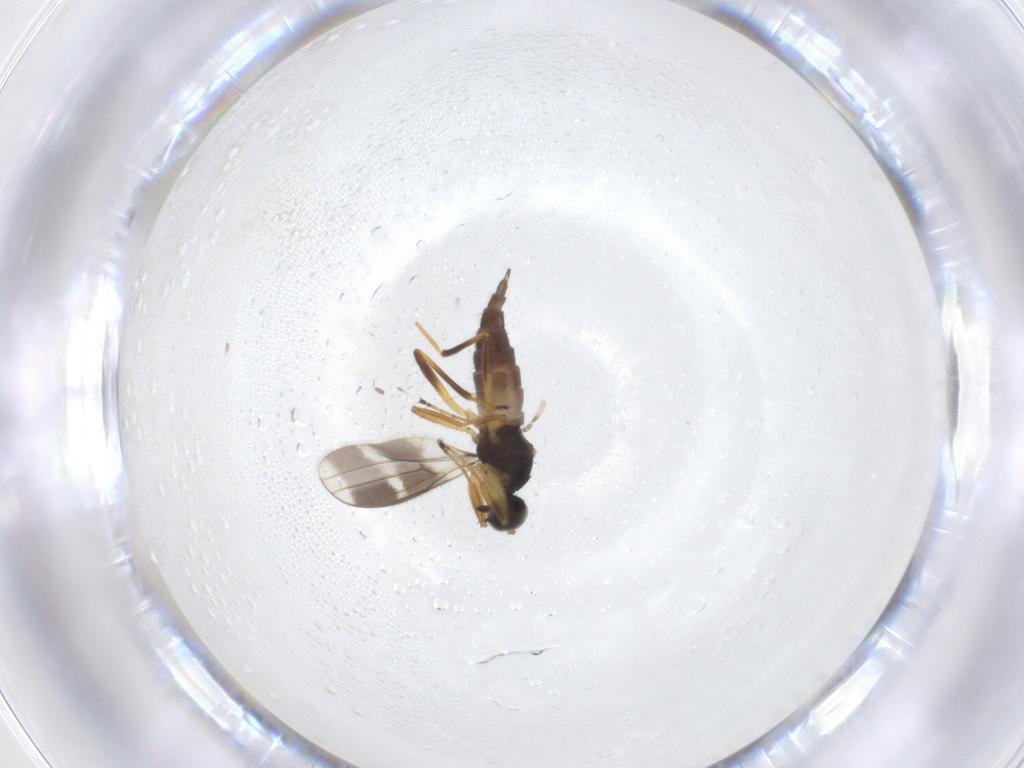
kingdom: Animalia
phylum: Arthropoda
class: Insecta
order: Diptera
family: Hybotidae
